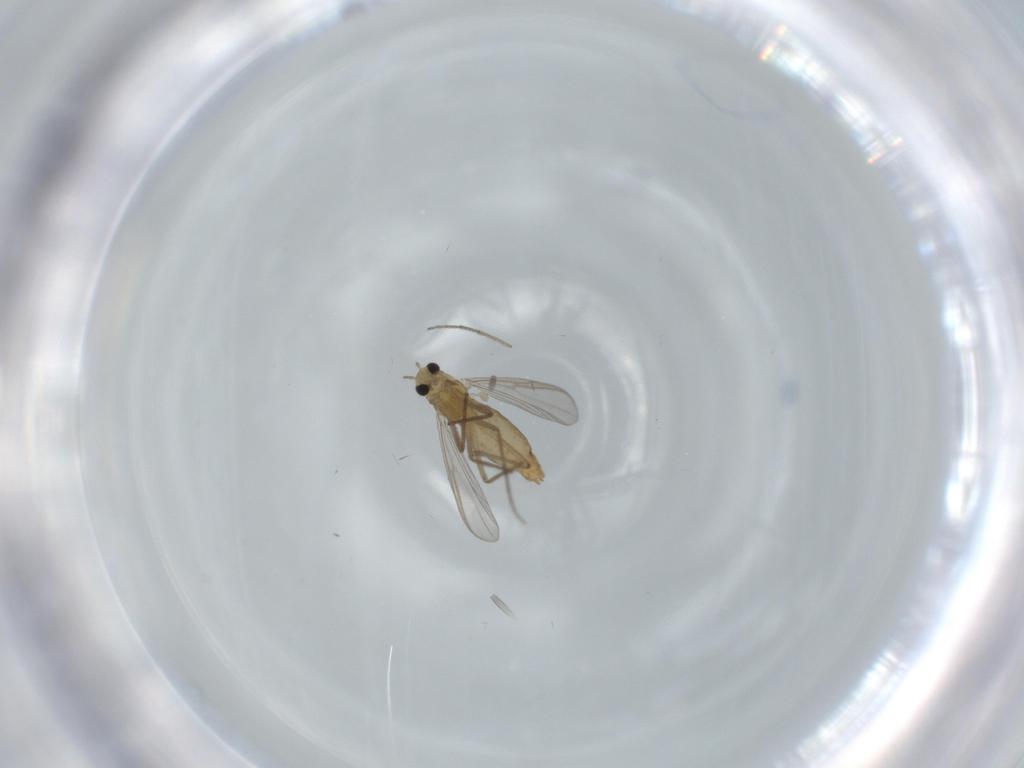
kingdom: Animalia
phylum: Arthropoda
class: Insecta
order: Diptera
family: Chironomidae
